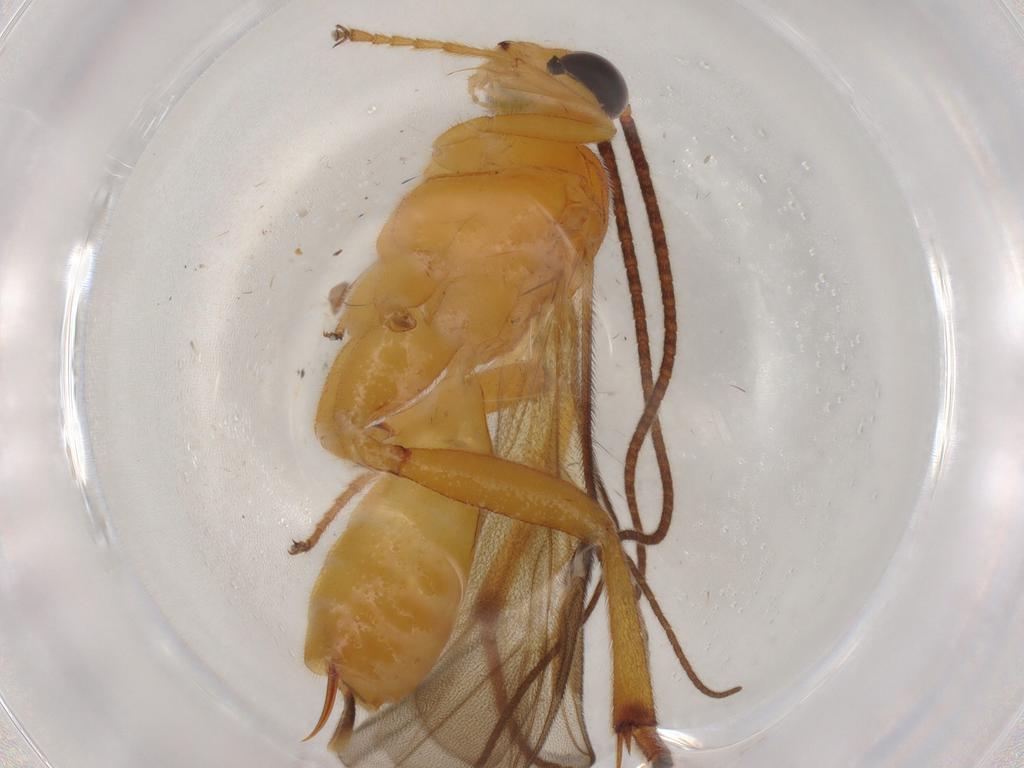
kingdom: Animalia
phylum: Arthropoda
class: Insecta
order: Hymenoptera
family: Braconidae
